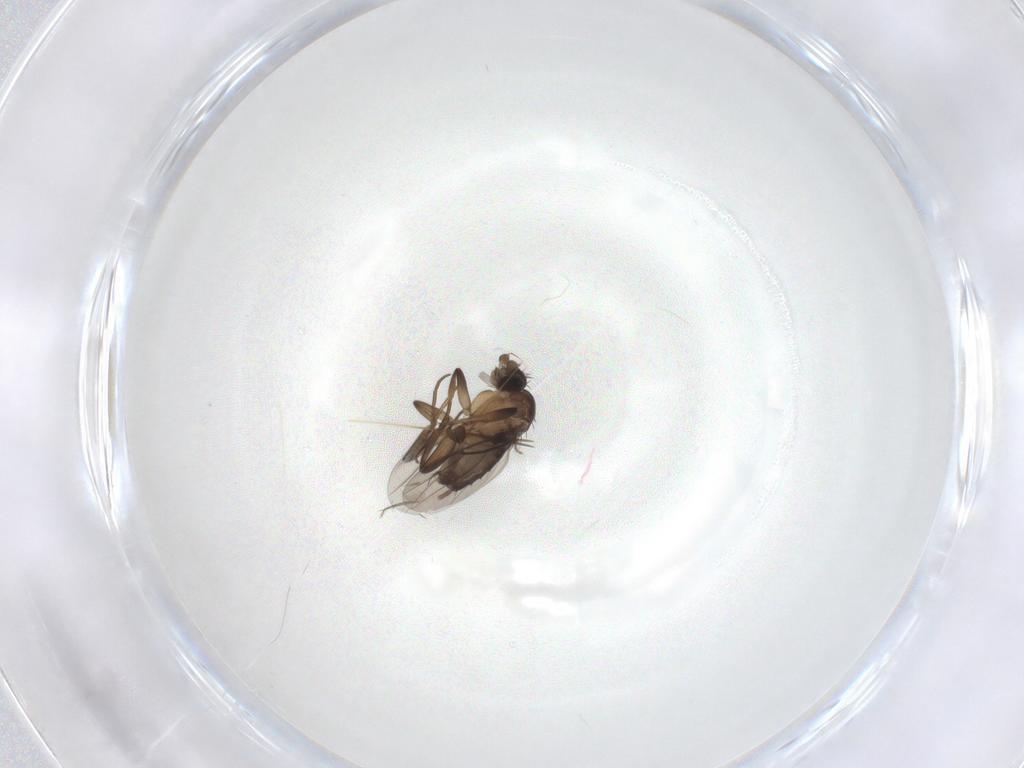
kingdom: Animalia
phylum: Arthropoda
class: Insecta
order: Diptera
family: Phoridae
